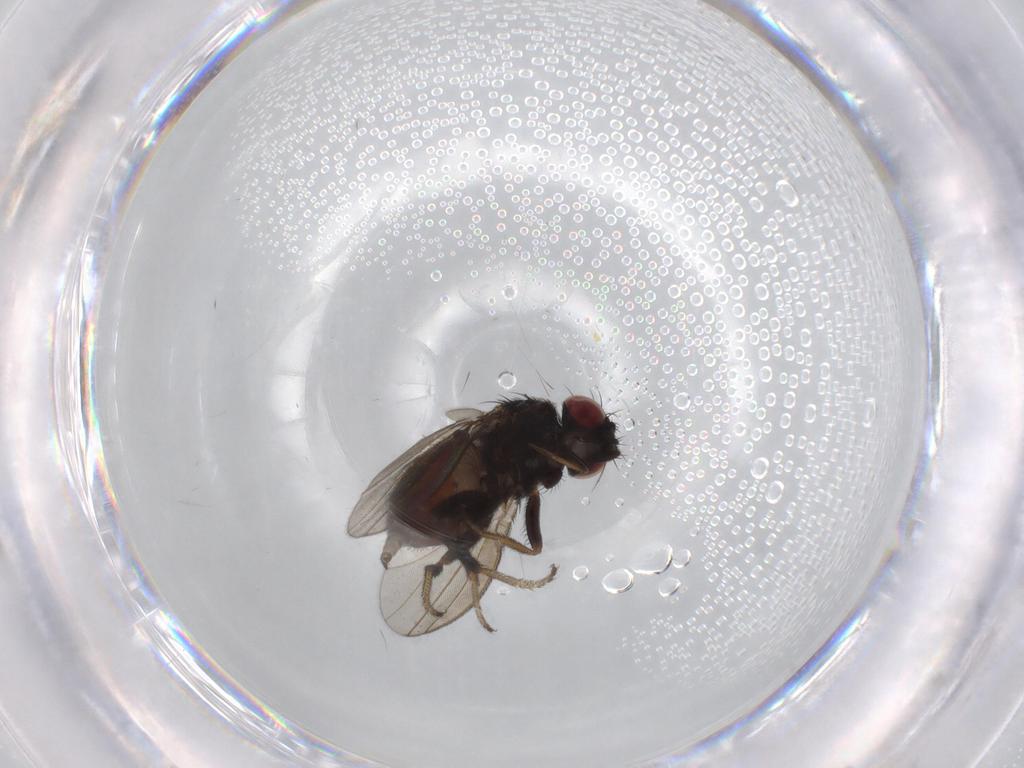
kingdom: Animalia
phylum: Arthropoda
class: Insecta
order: Diptera
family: Milichiidae
